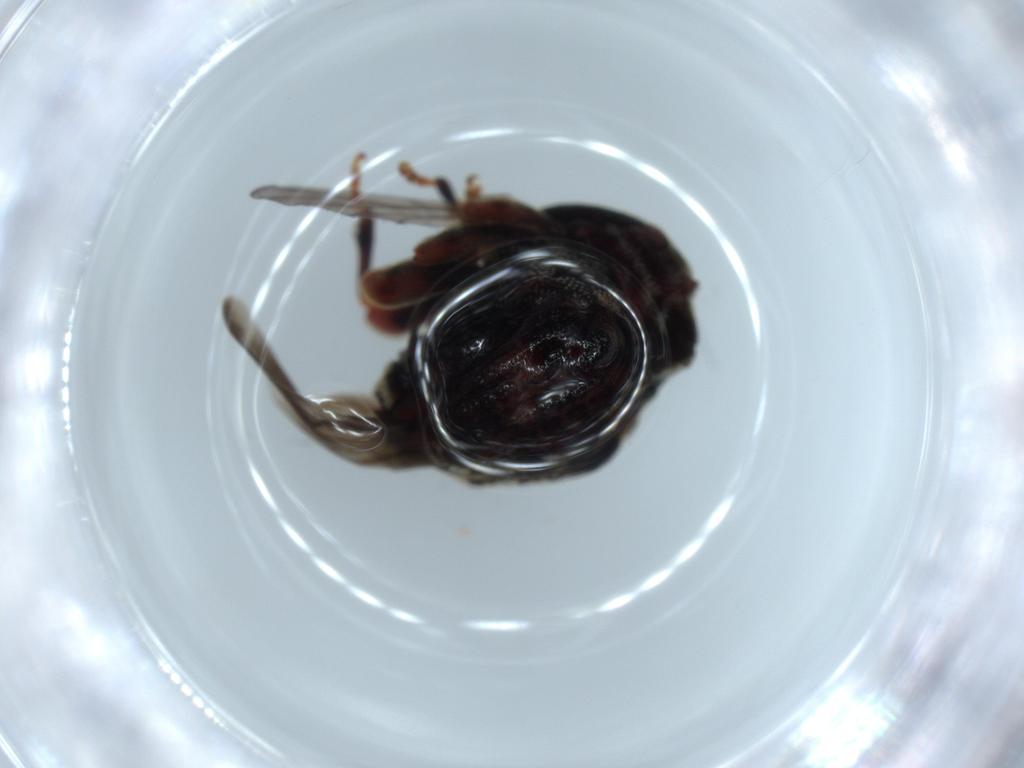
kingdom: Animalia
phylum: Arthropoda
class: Insecta
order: Coleoptera
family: Curculionidae
